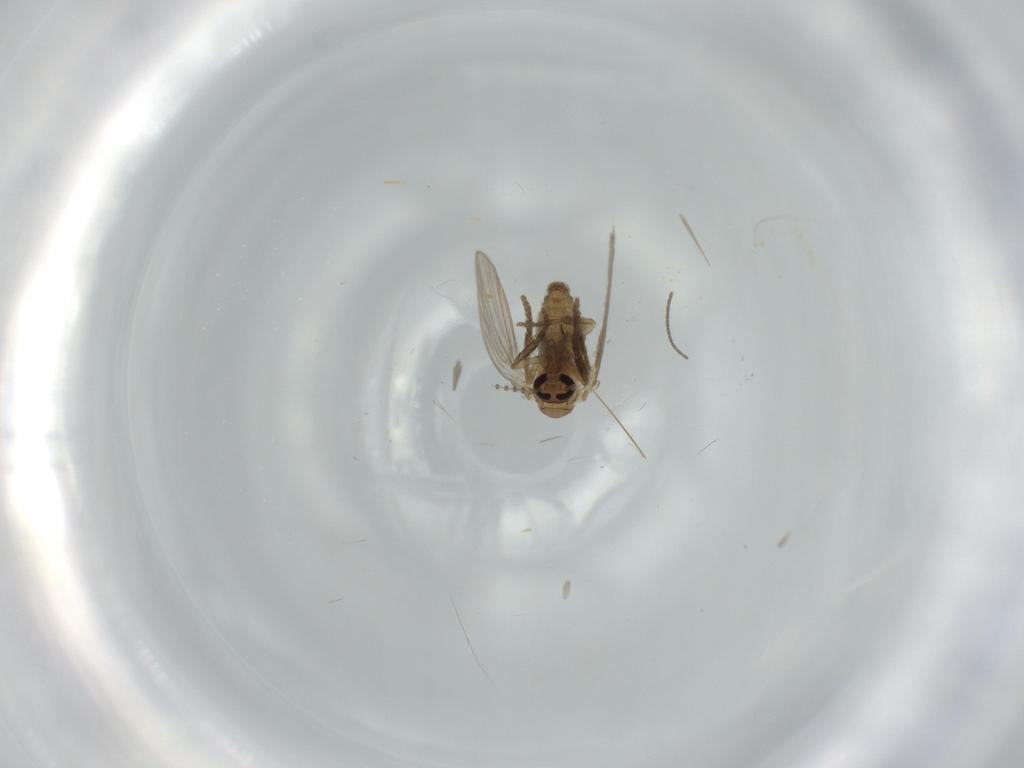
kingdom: Animalia
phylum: Arthropoda
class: Insecta
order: Diptera
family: Psychodidae
